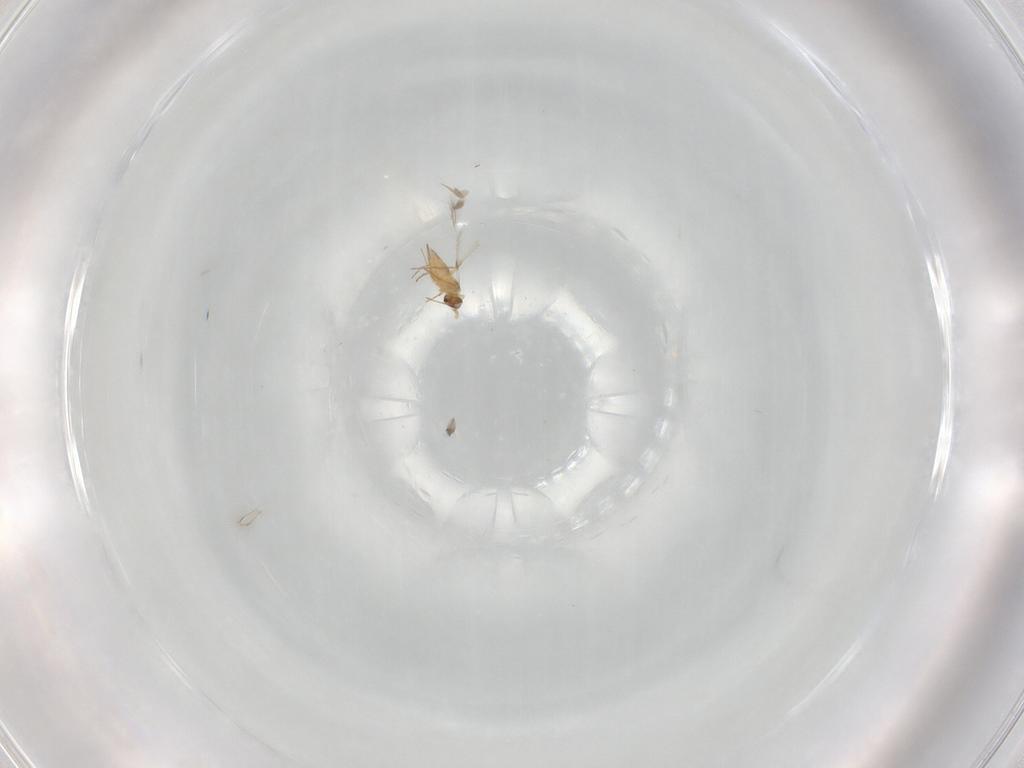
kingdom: Animalia
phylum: Arthropoda
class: Insecta
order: Hymenoptera
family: Mymaridae
